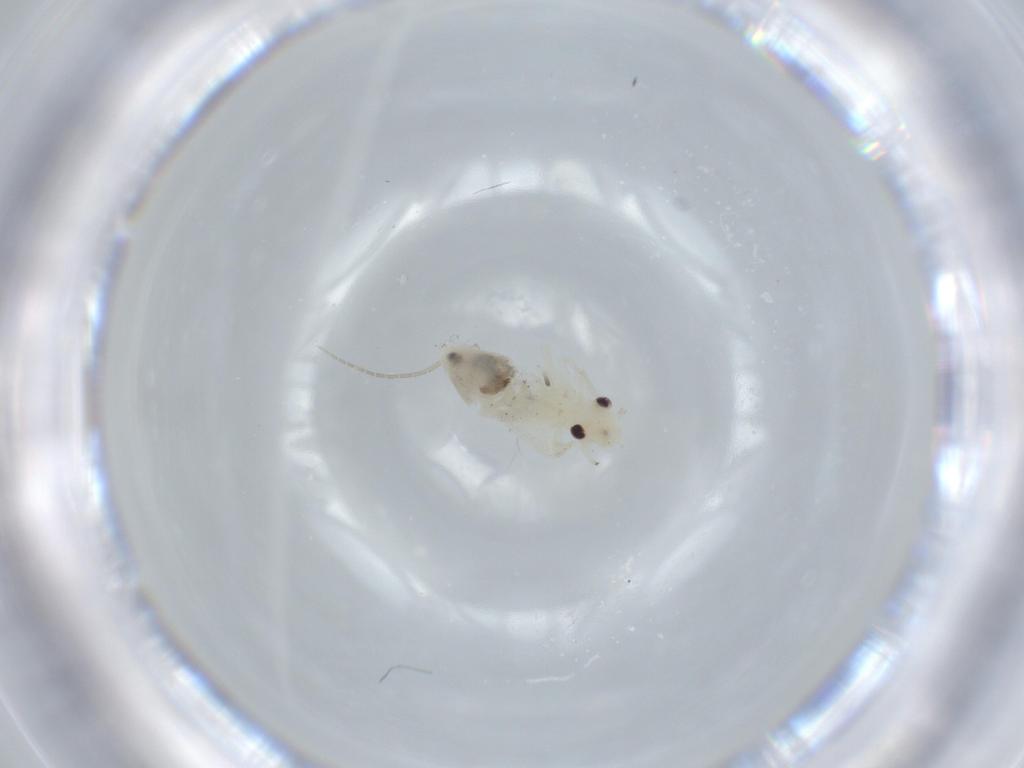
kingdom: Animalia
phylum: Arthropoda
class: Insecta
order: Psocodea
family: Caeciliusidae
